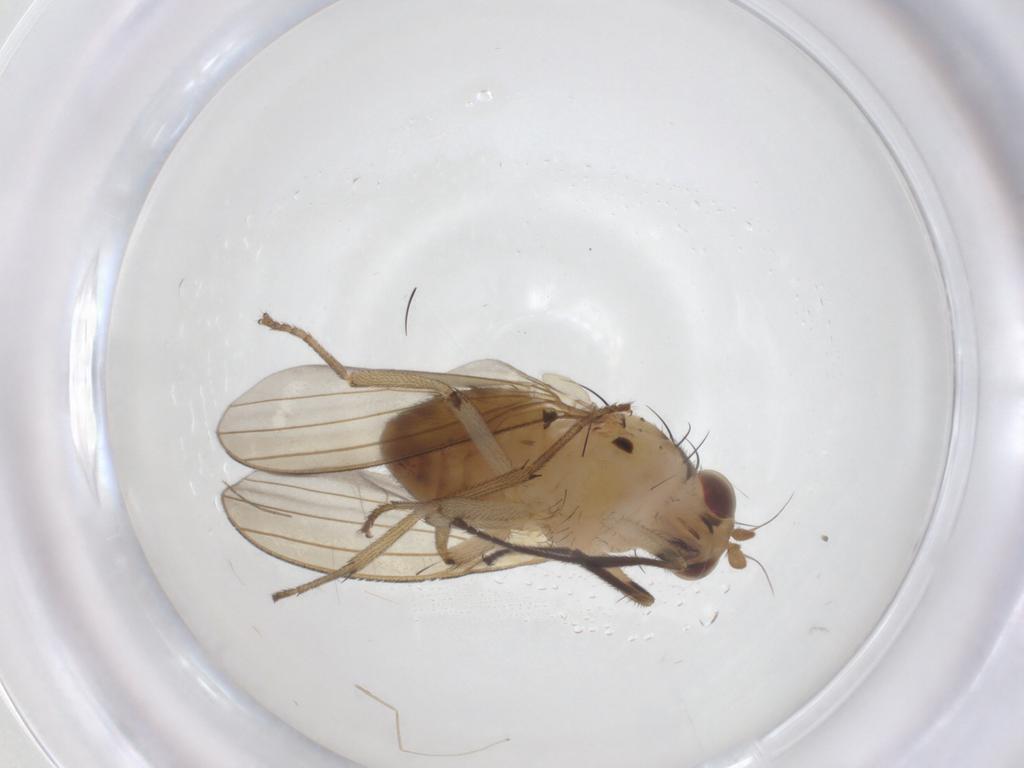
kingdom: Animalia
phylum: Arthropoda
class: Insecta
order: Diptera
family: Lauxaniidae
